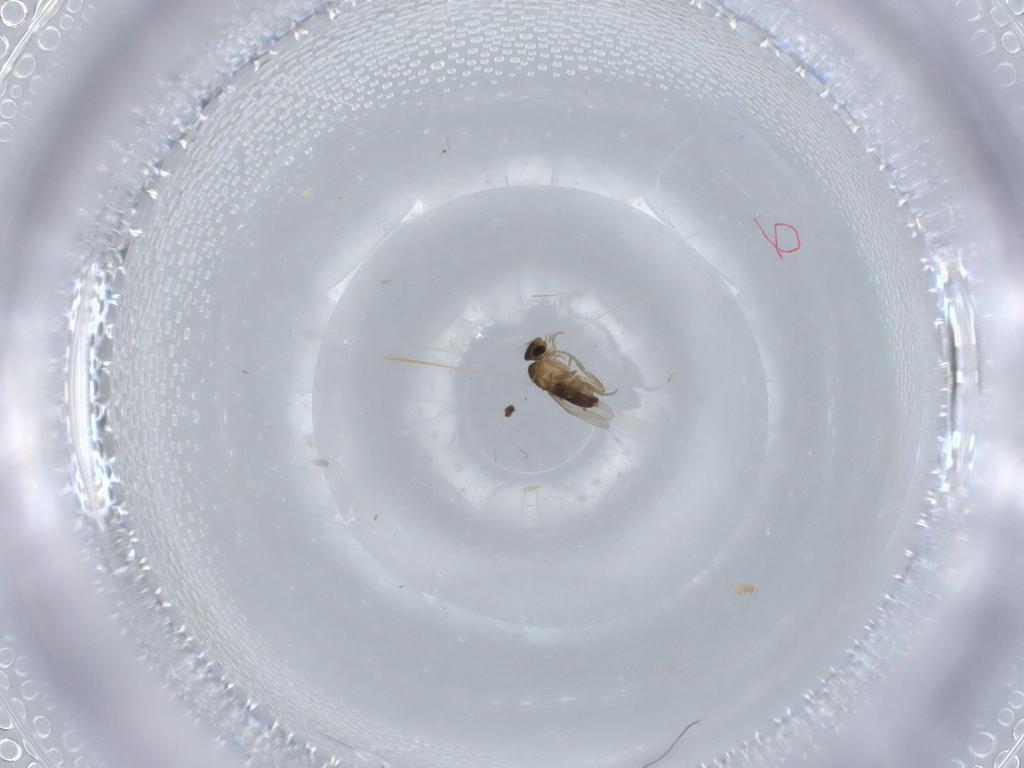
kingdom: Animalia
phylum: Arthropoda
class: Insecta
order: Diptera
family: Phoridae
